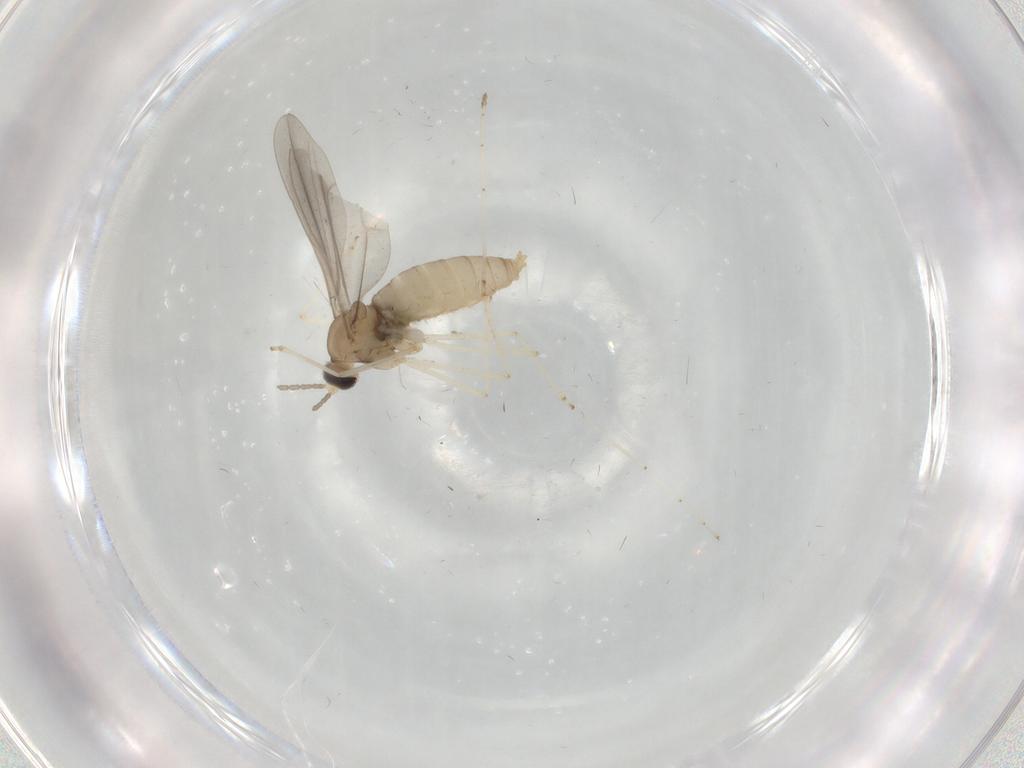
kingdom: Animalia
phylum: Arthropoda
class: Insecta
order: Diptera
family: Cecidomyiidae
